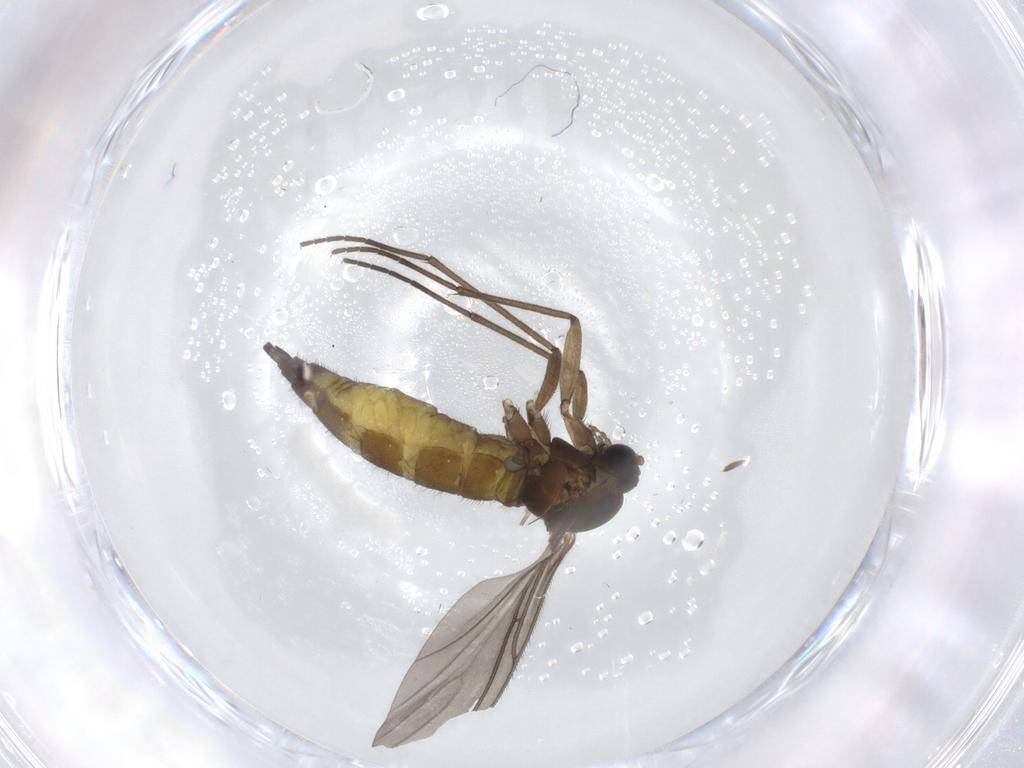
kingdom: Animalia
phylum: Arthropoda
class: Insecta
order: Diptera
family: Sciaridae
